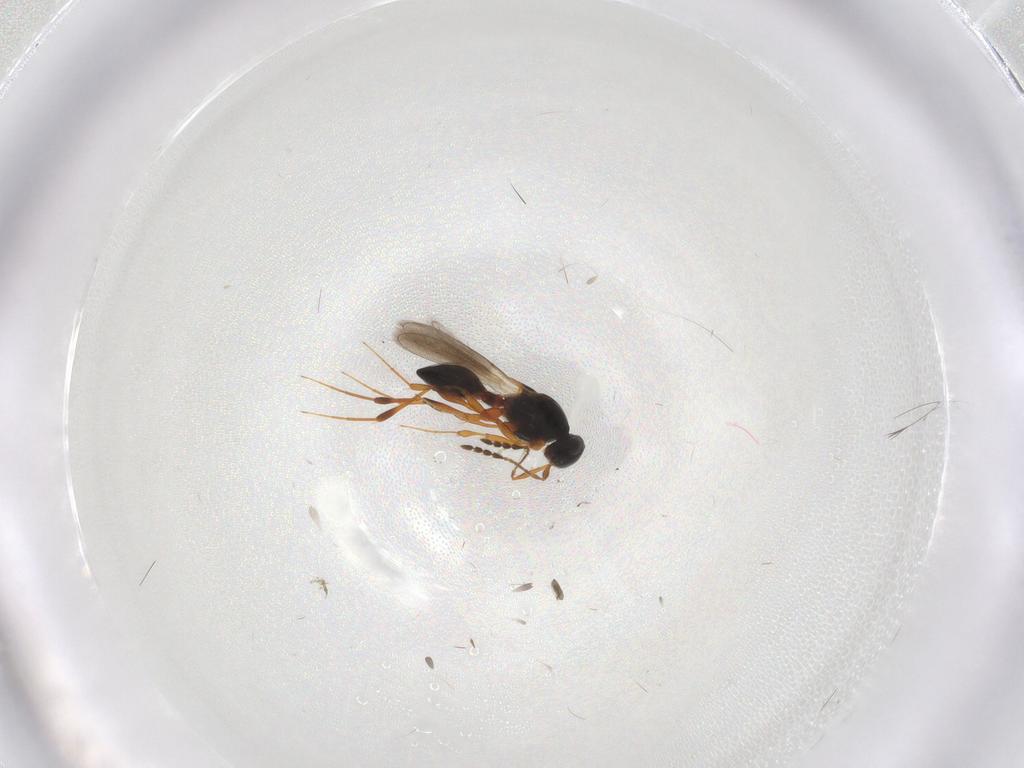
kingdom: Animalia
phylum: Arthropoda
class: Insecta
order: Hymenoptera
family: Platygastridae
